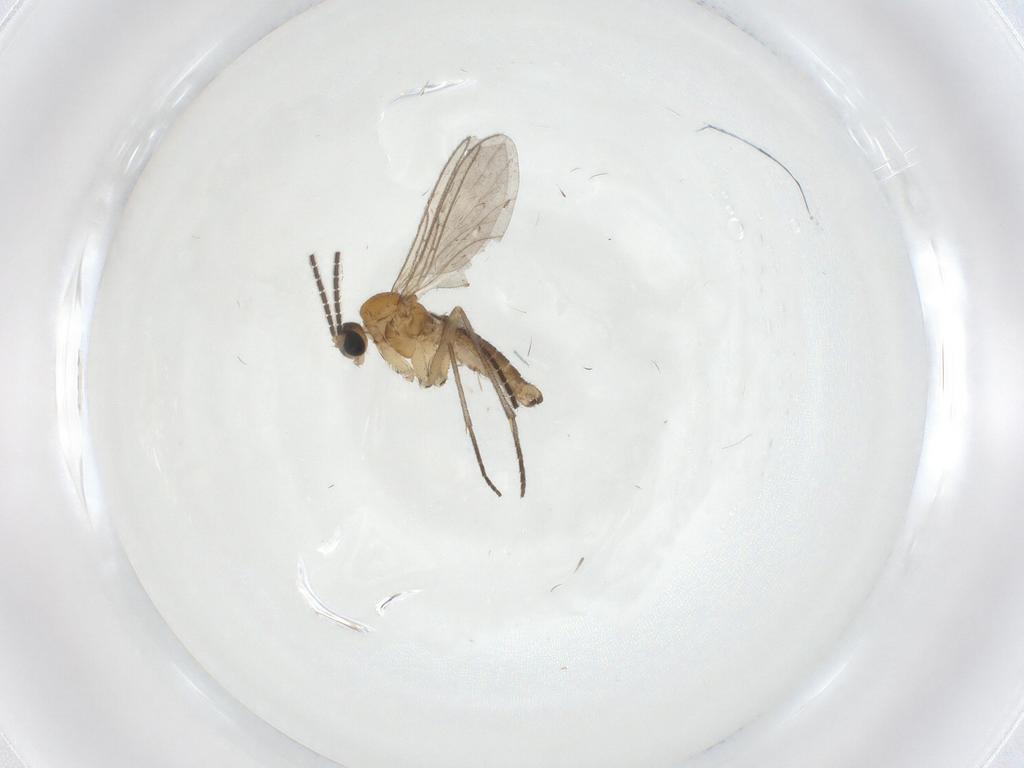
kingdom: Animalia
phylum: Arthropoda
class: Insecta
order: Diptera
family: Sciaridae
